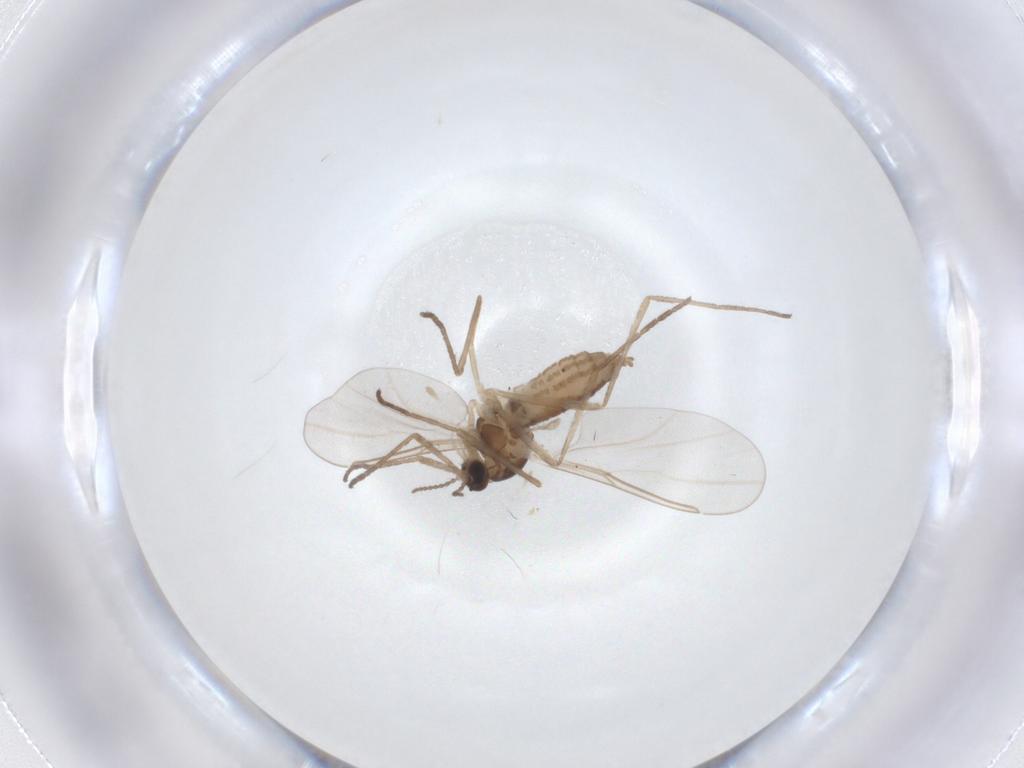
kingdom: Animalia
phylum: Arthropoda
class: Insecta
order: Diptera
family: Cecidomyiidae
